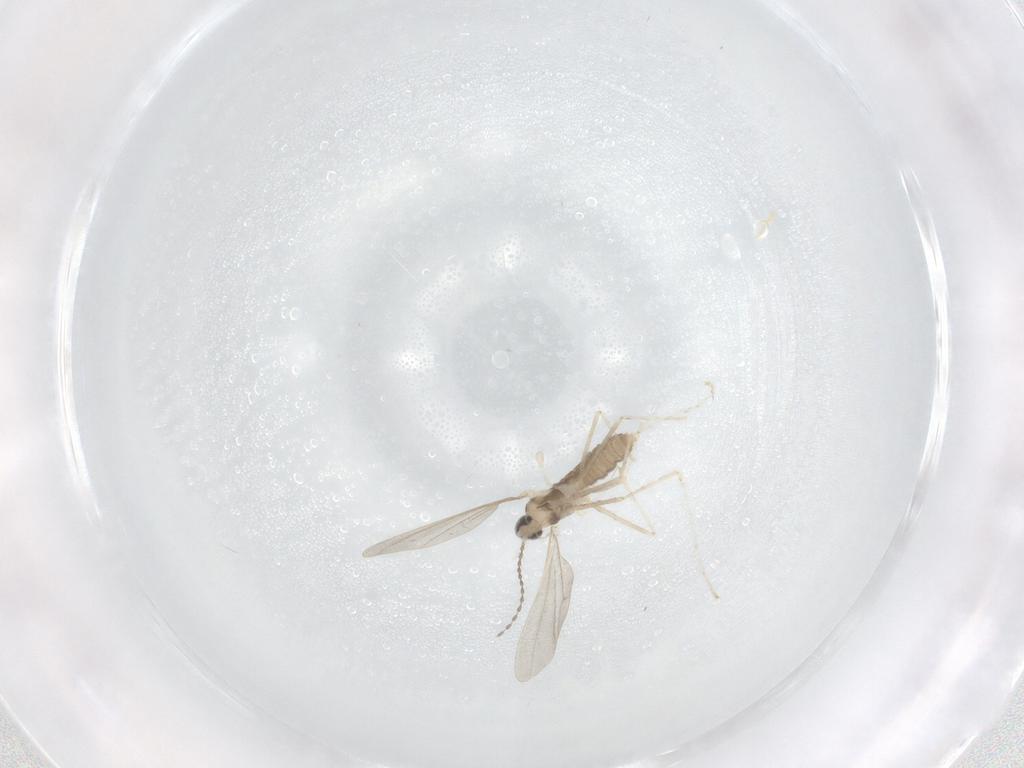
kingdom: Animalia
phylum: Arthropoda
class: Insecta
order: Diptera
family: Cecidomyiidae
